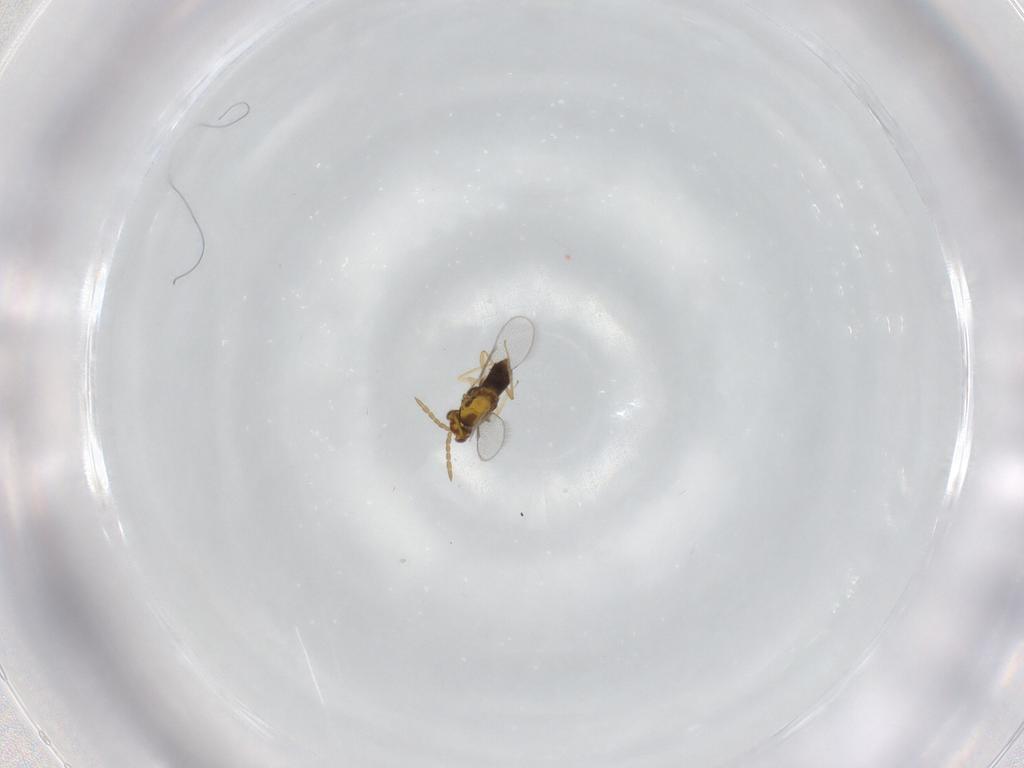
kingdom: Animalia
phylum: Arthropoda
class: Insecta
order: Hymenoptera
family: Aphelinidae
